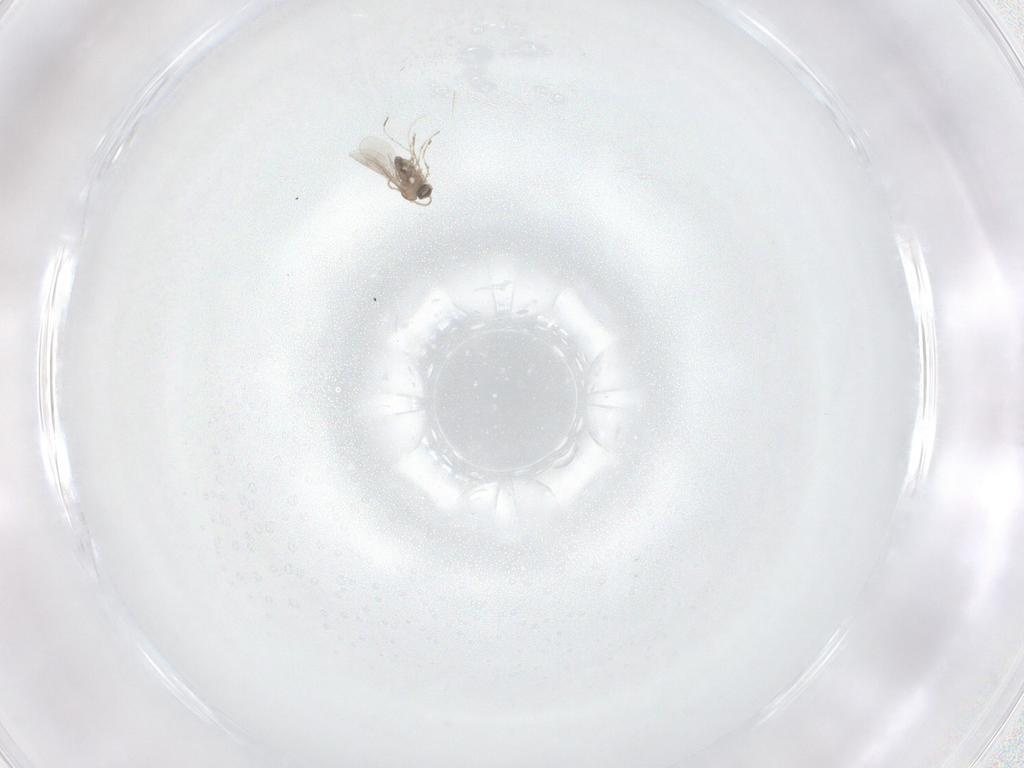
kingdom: Animalia
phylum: Arthropoda
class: Insecta
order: Diptera
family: Cecidomyiidae
